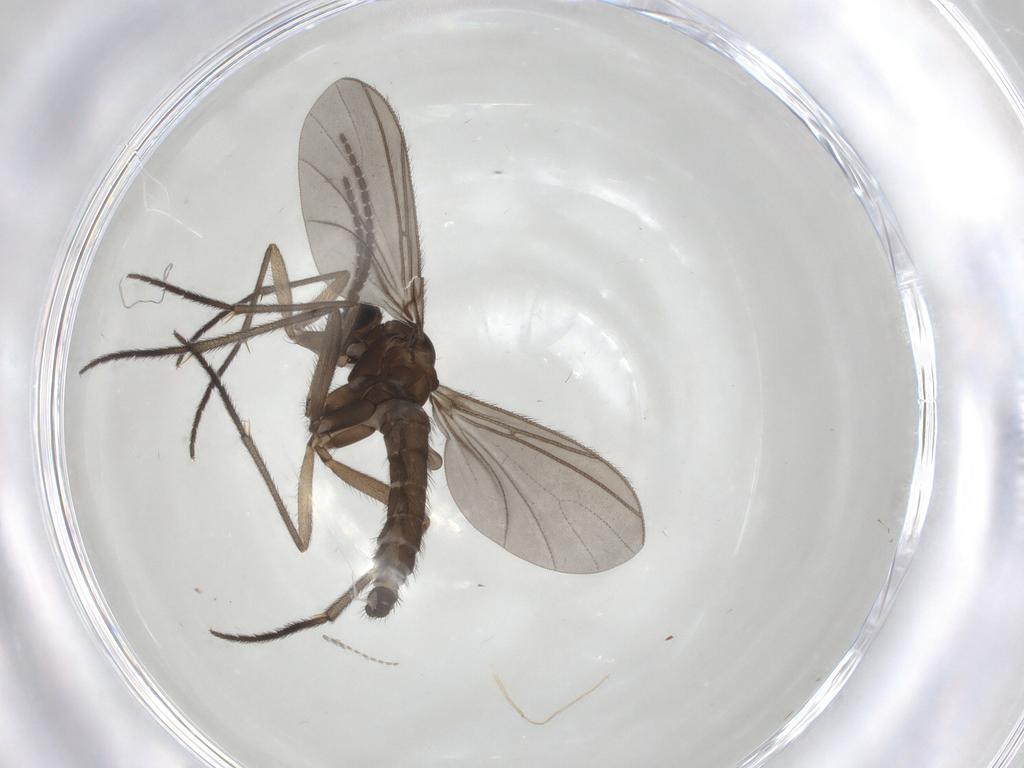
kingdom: Animalia
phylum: Arthropoda
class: Insecta
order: Diptera
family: Sciaridae
